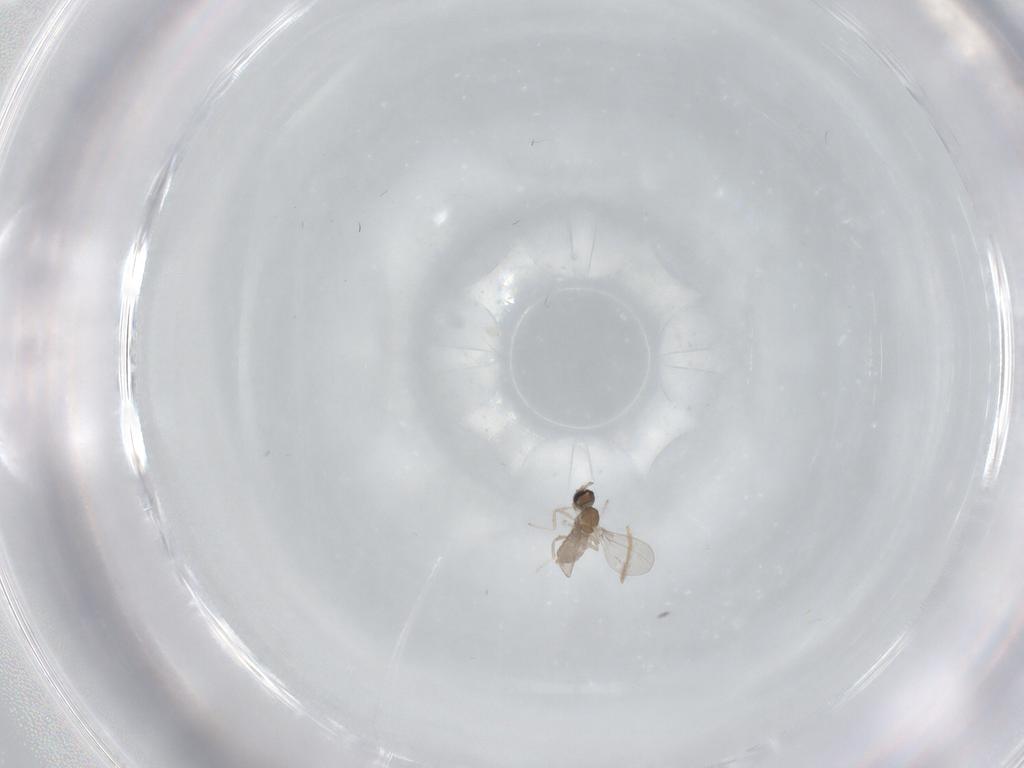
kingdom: Animalia
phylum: Arthropoda
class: Insecta
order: Diptera
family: Cecidomyiidae
